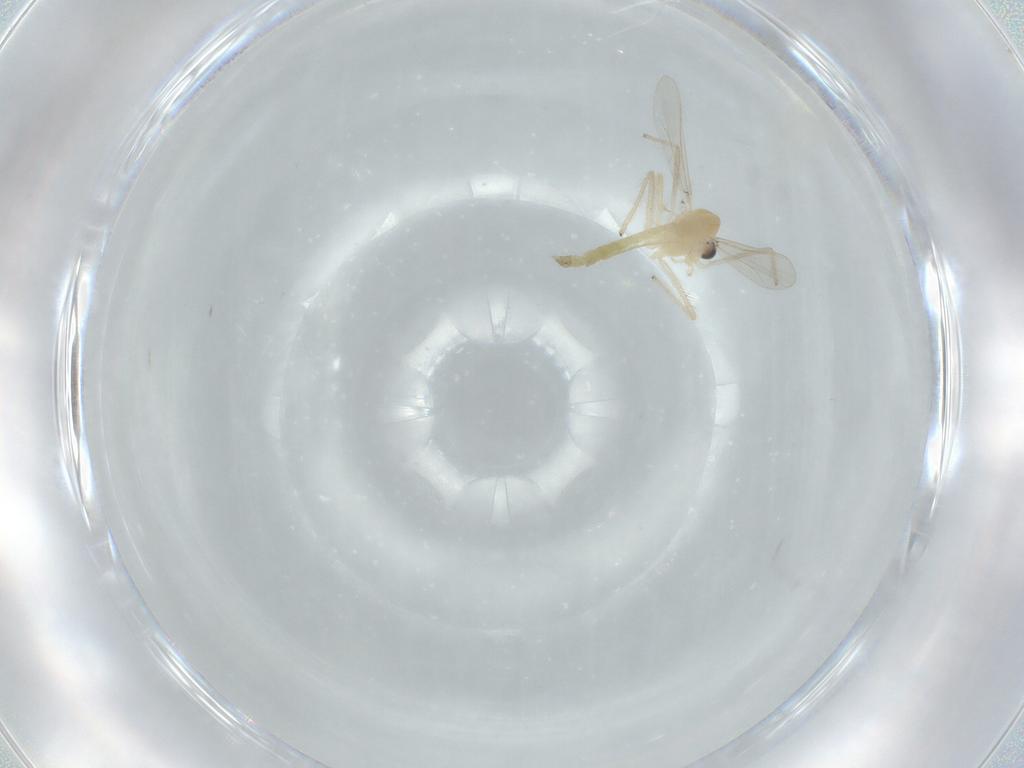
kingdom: Animalia
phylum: Arthropoda
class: Insecta
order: Diptera
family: Chironomidae
